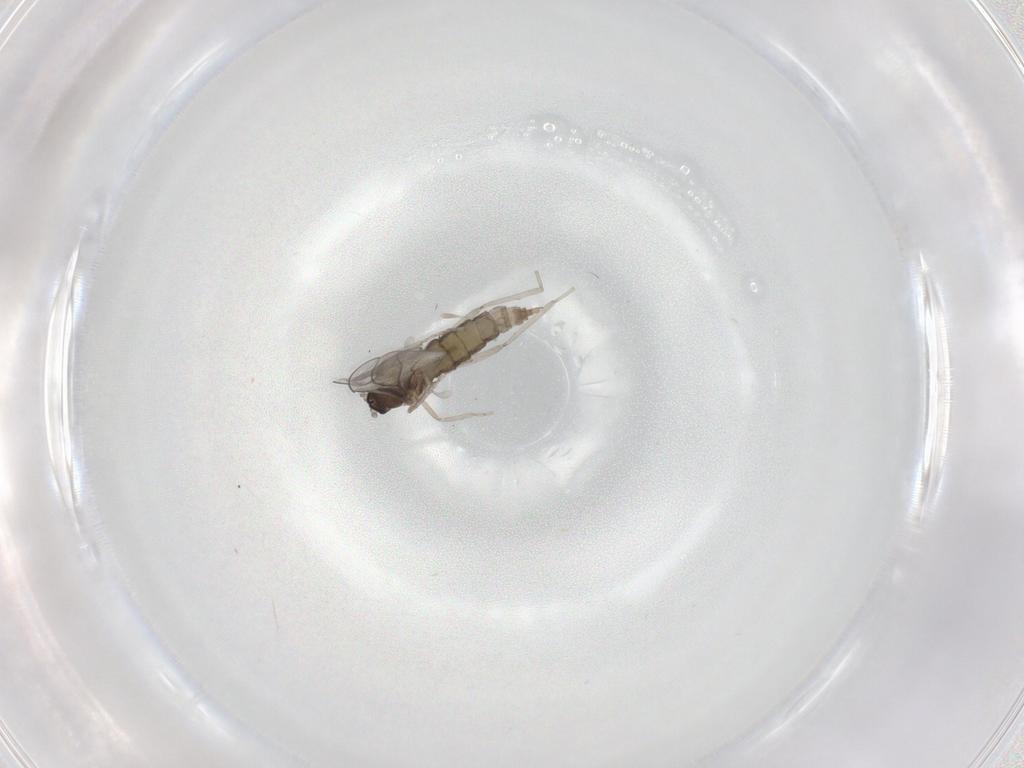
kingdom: Animalia
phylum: Arthropoda
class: Insecta
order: Diptera
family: Cecidomyiidae
